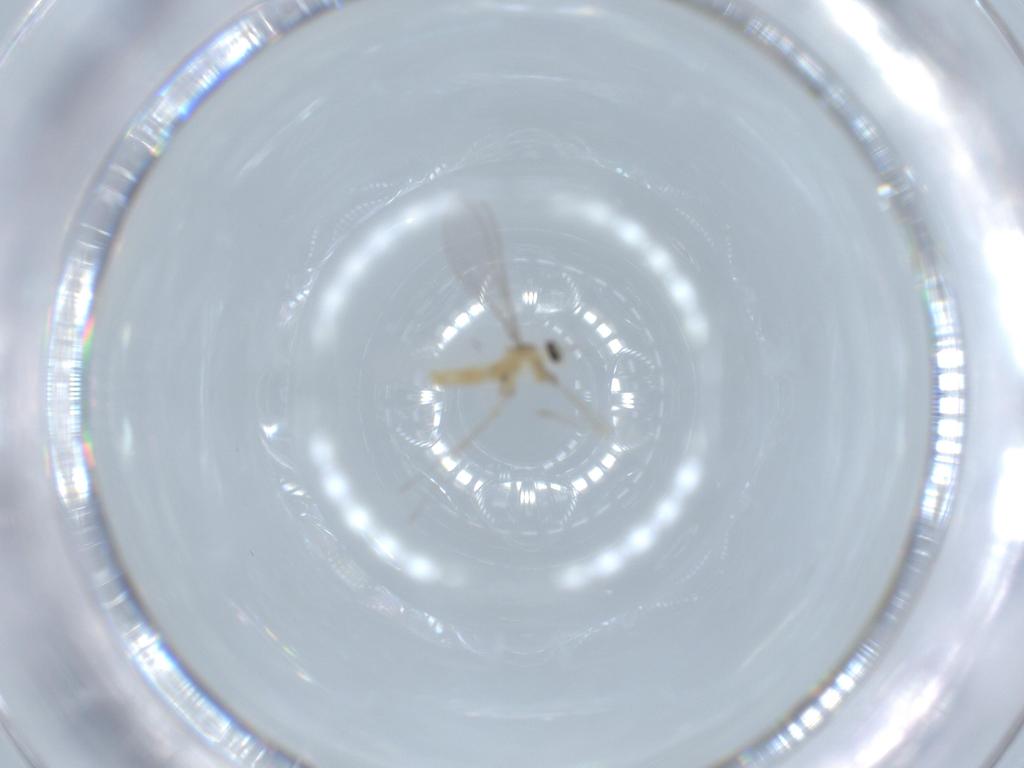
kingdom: Animalia
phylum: Arthropoda
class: Insecta
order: Diptera
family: Cecidomyiidae
